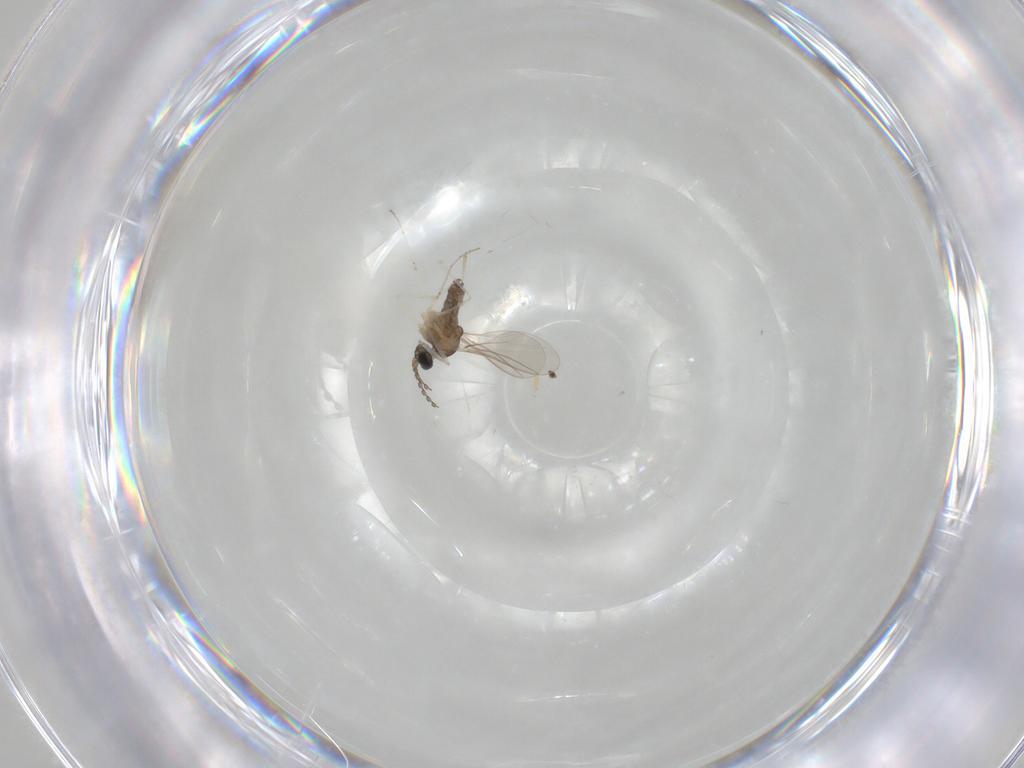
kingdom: Animalia
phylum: Arthropoda
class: Insecta
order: Diptera
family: Cecidomyiidae
